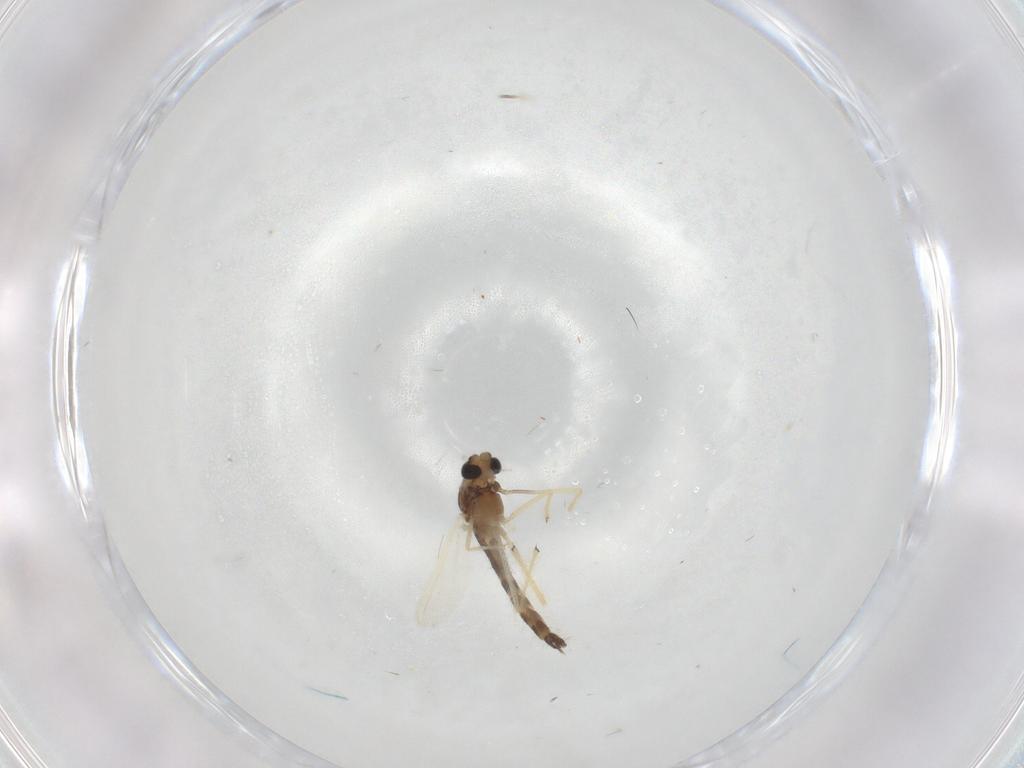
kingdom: Animalia
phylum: Arthropoda
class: Insecta
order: Diptera
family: Chironomidae
